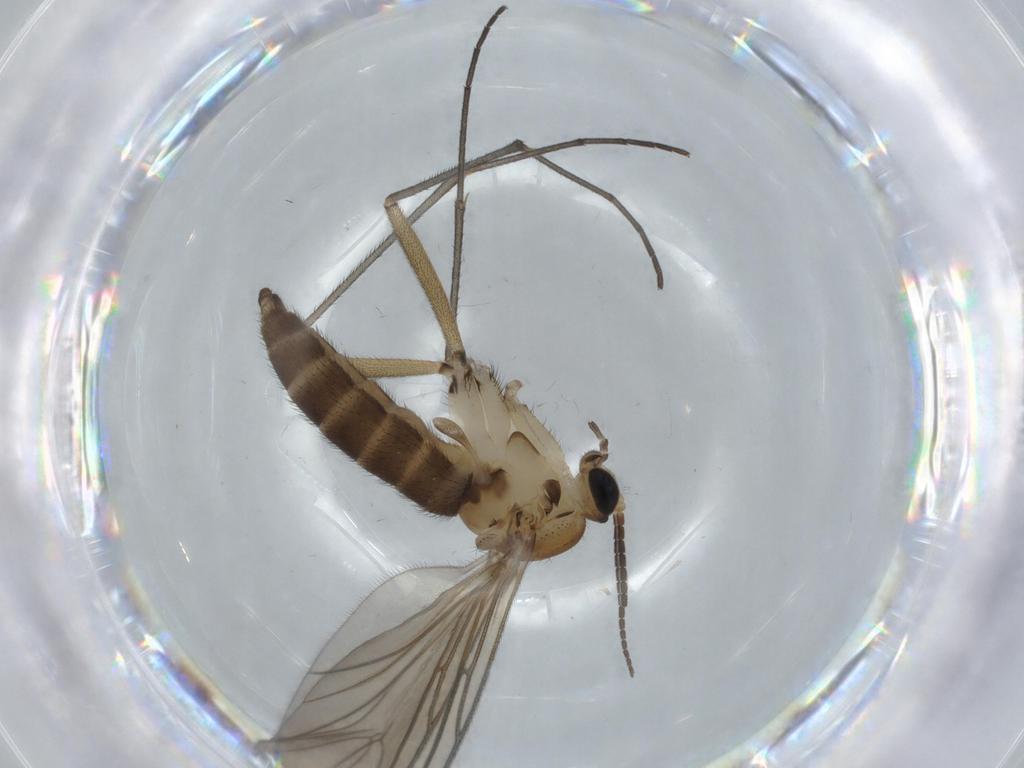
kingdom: Animalia
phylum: Arthropoda
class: Insecta
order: Diptera
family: Sciaridae
